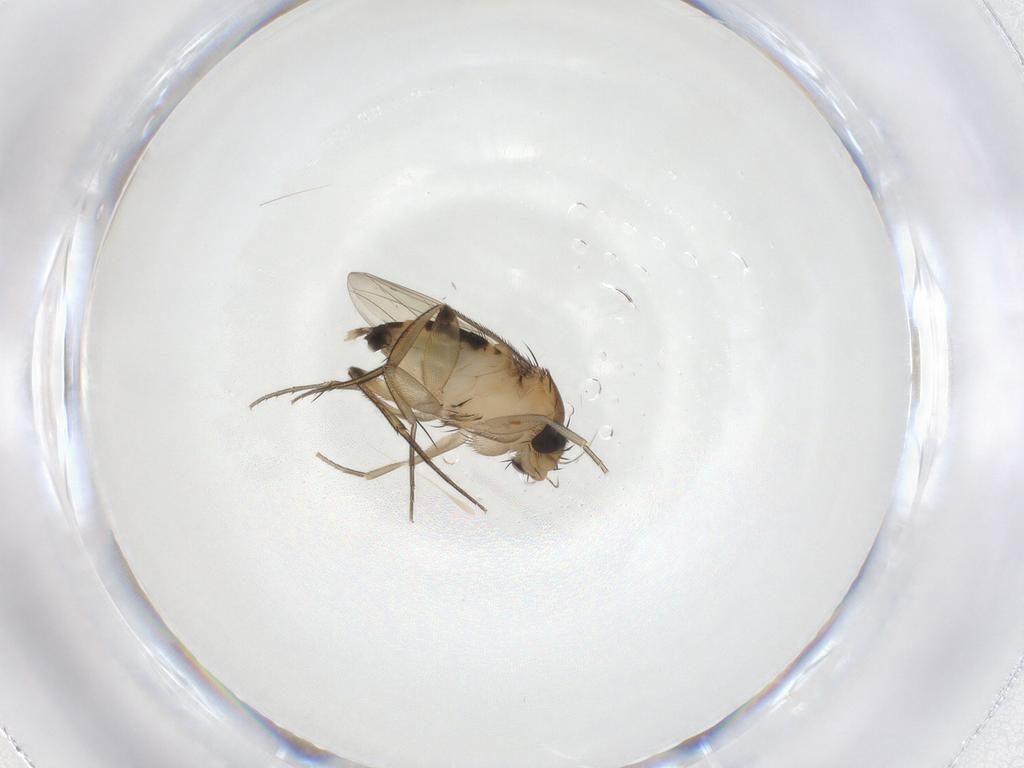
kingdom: Animalia
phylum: Arthropoda
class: Insecta
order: Diptera
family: Phoridae
